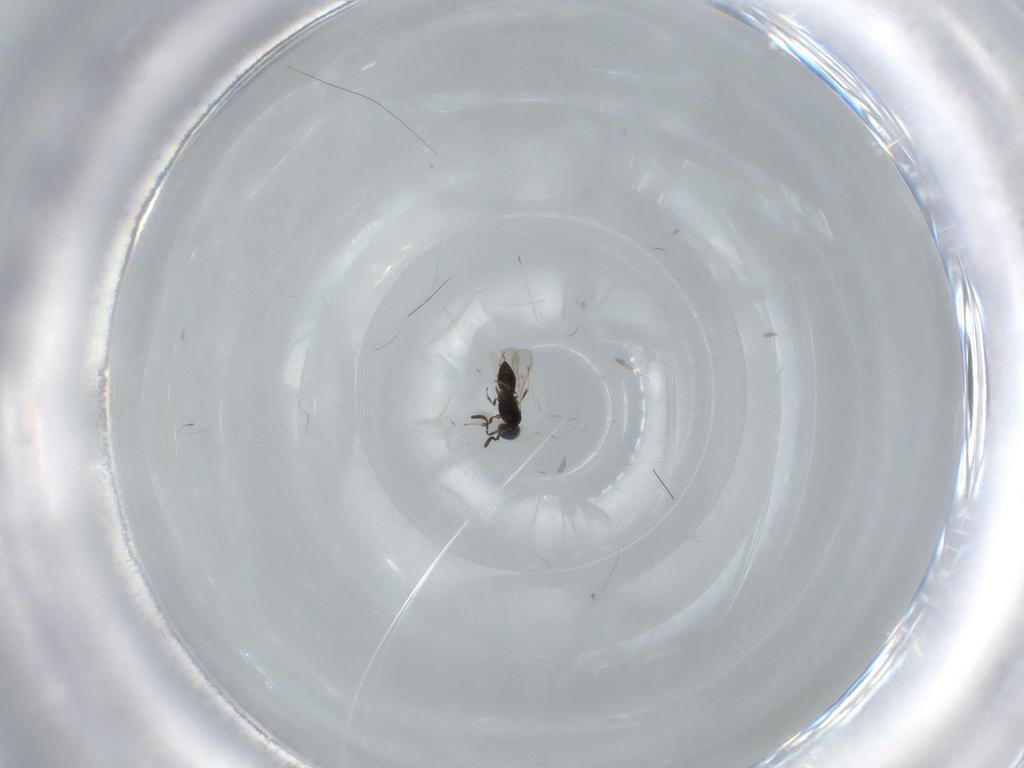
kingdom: Animalia
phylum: Arthropoda
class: Insecta
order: Hymenoptera
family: Scelionidae
